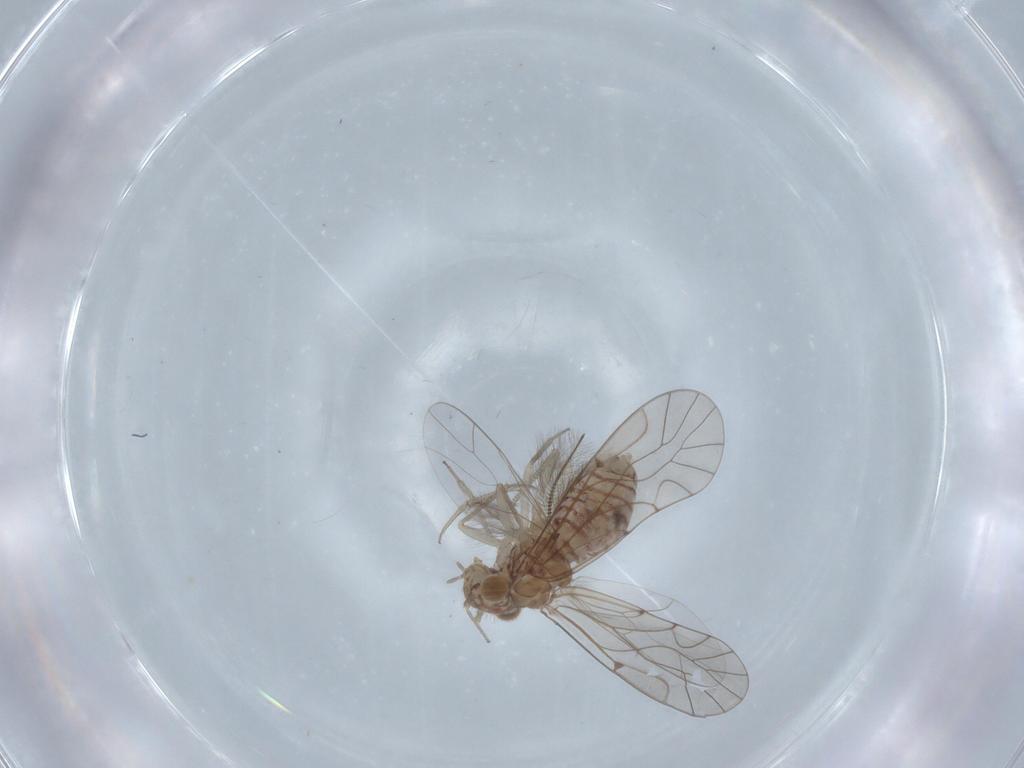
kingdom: Animalia
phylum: Arthropoda
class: Insecta
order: Psocodea
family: Lachesillidae
